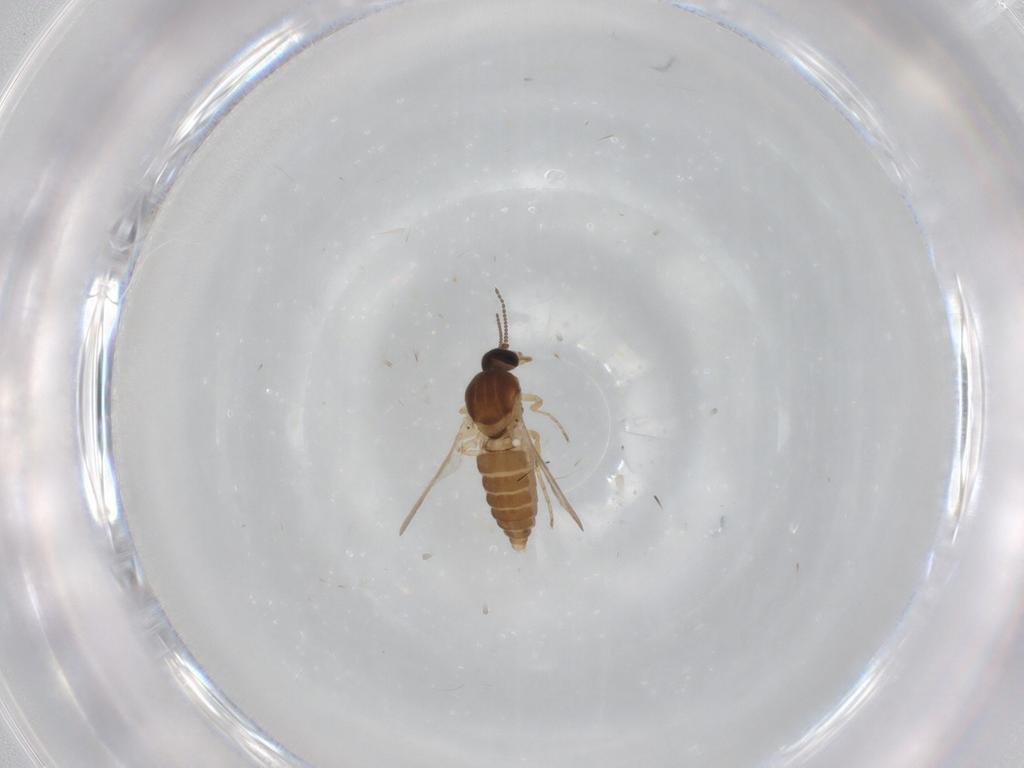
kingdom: Animalia
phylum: Arthropoda
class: Insecta
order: Diptera
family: Ceratopogonidae
